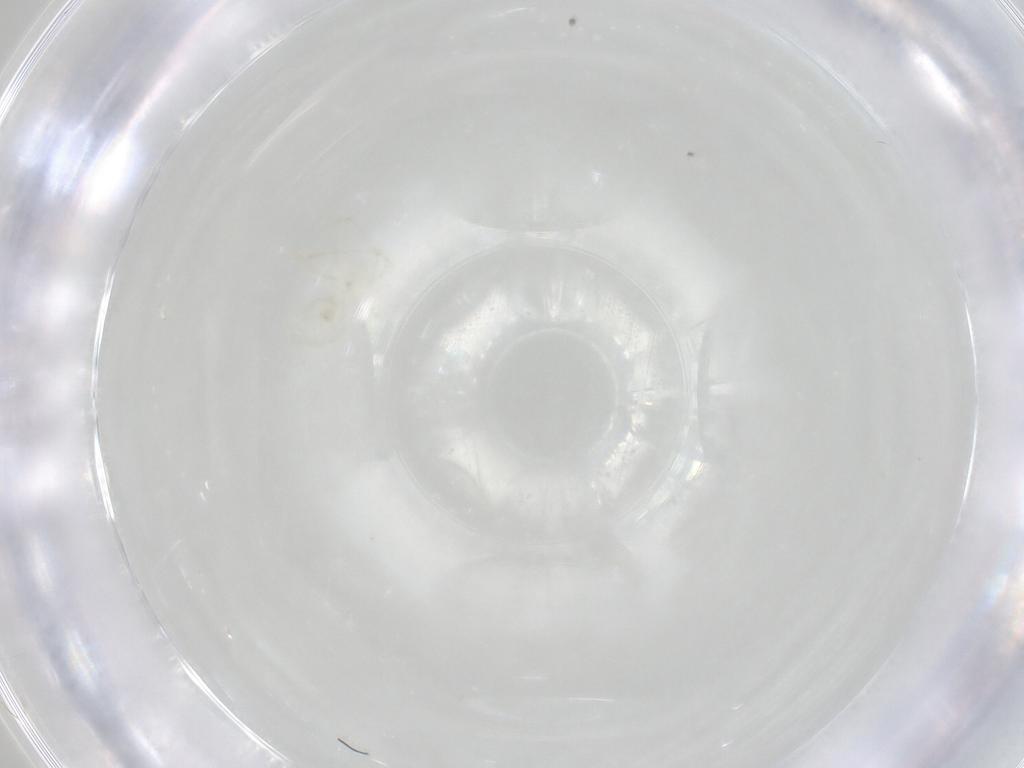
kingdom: Animalia
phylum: Arthropoda
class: Arachnida
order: Trombidiformes
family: Erythraeidae
